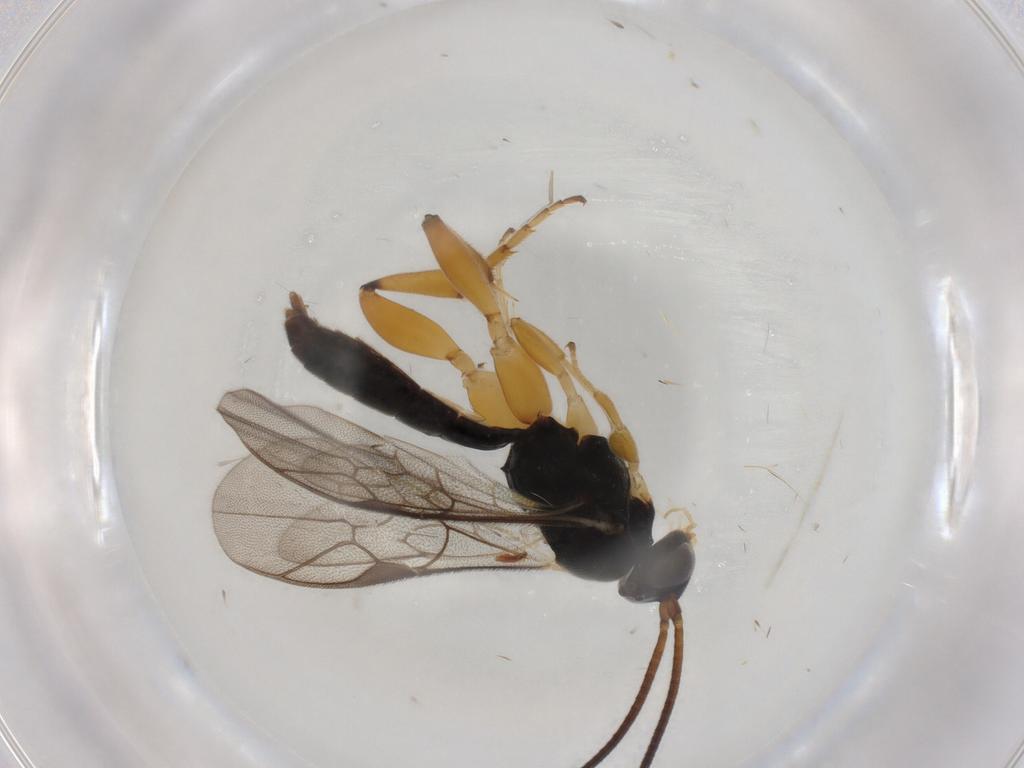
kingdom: Animalia
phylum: Arthropoda
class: Insecta
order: Hymenoptera
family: Ichneumonidae
